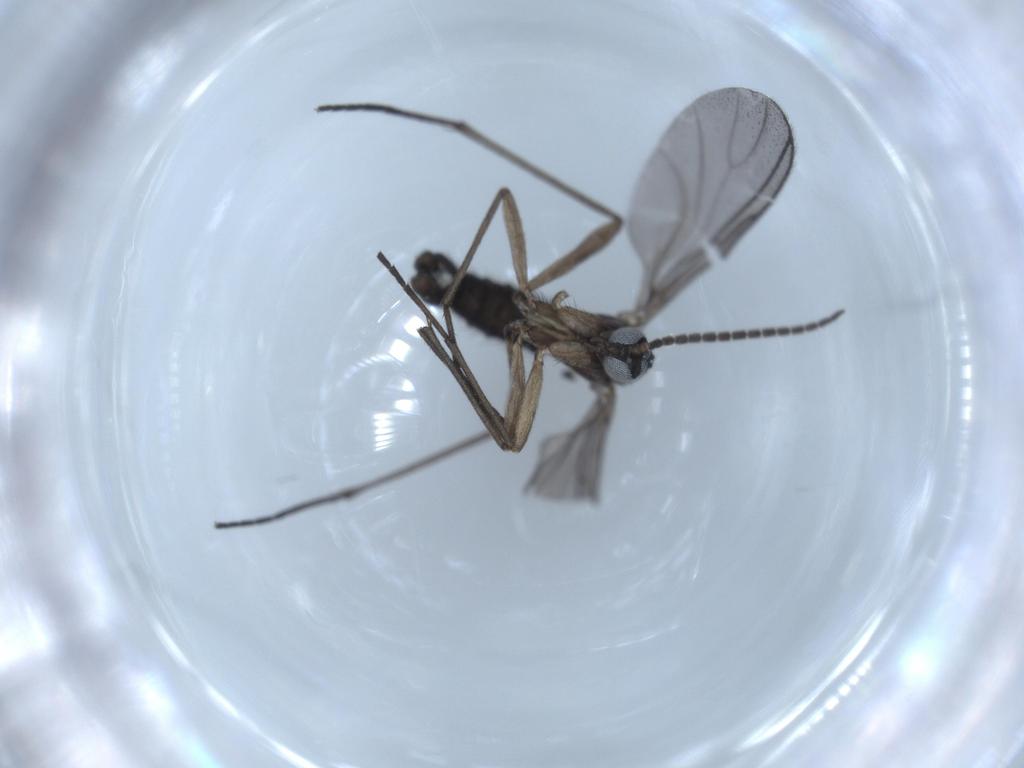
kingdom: Animalia
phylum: Arthropoda
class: Insecta
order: Diptera
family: Sciaridae
